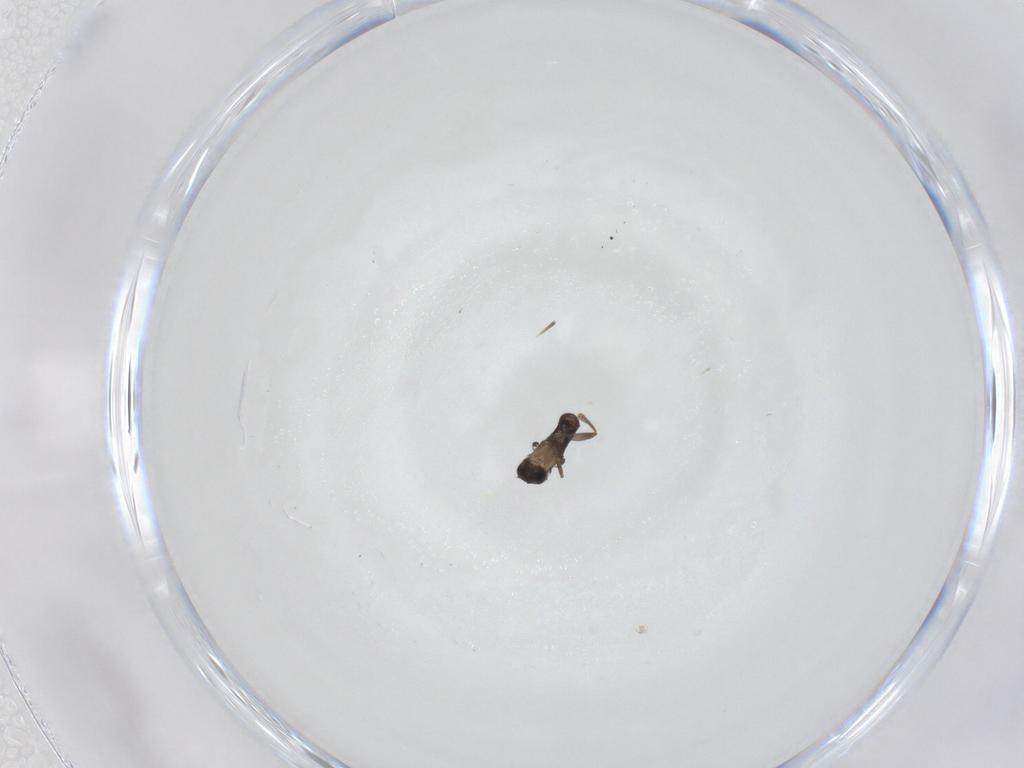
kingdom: Animalia
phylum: Arthropoda
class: Insecta
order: Diptera
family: Phoridae
